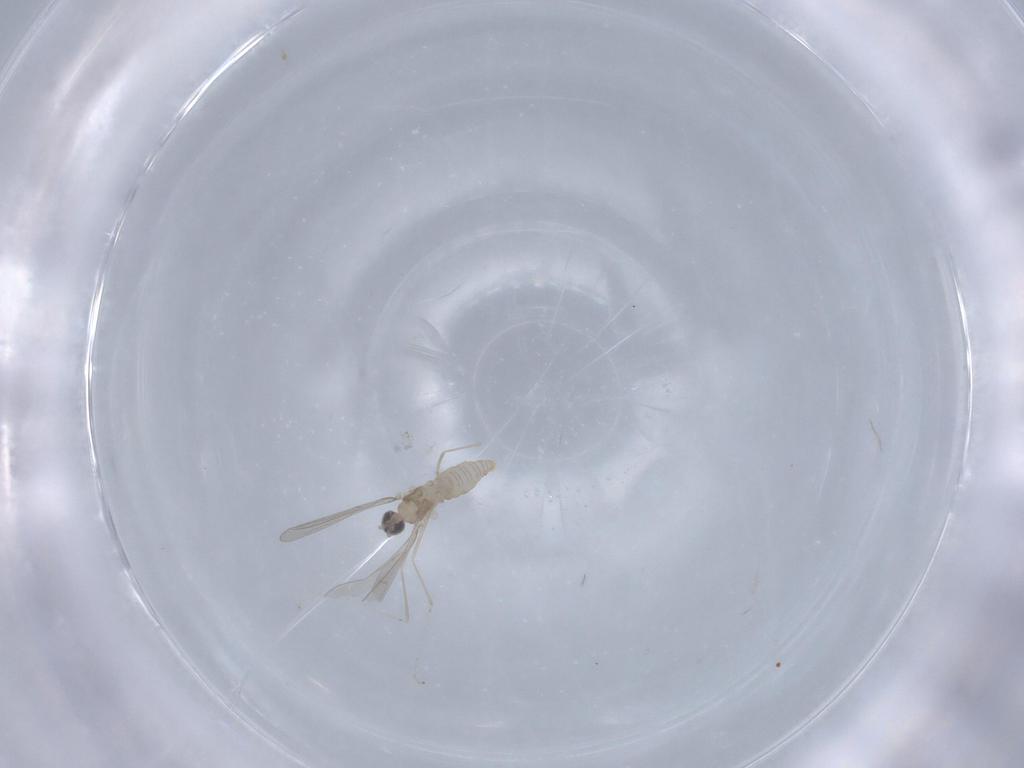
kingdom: Animalia
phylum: Arthropoda
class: Insecta
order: Diptera
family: Cecidomyiidae
